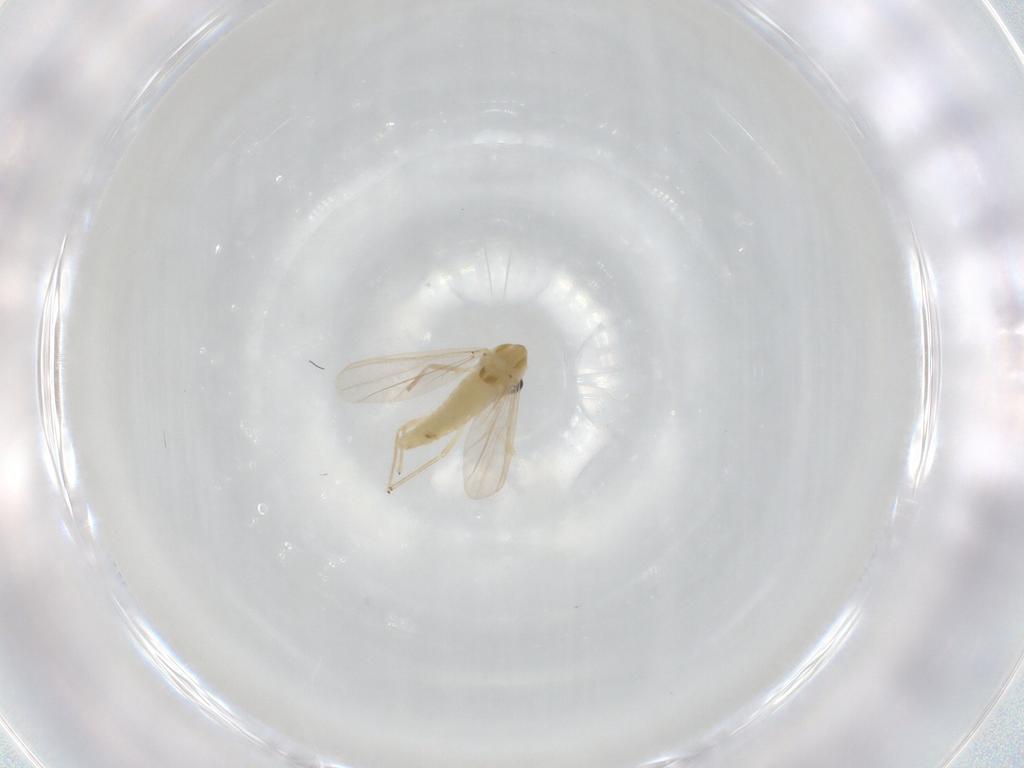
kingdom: Animalia
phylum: Arthropoda
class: Insecta
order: Diptera
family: Chironomidae
